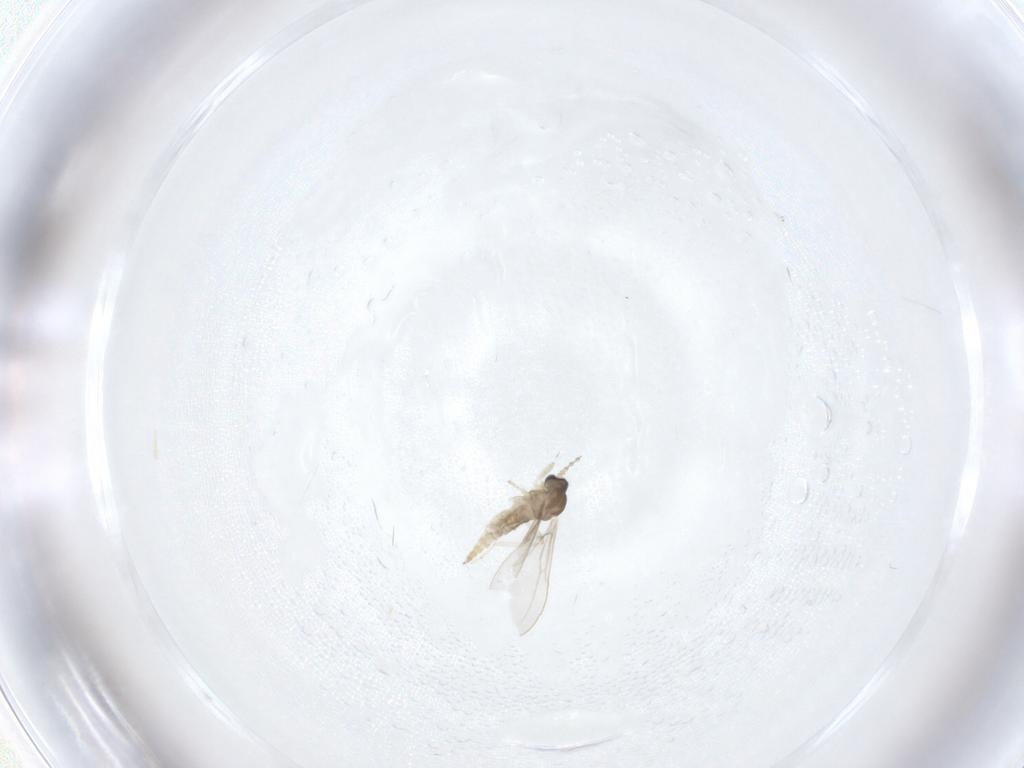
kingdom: Animalia
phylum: Arthropoda
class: Insecta
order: Diptera
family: Cecidomyiidae
